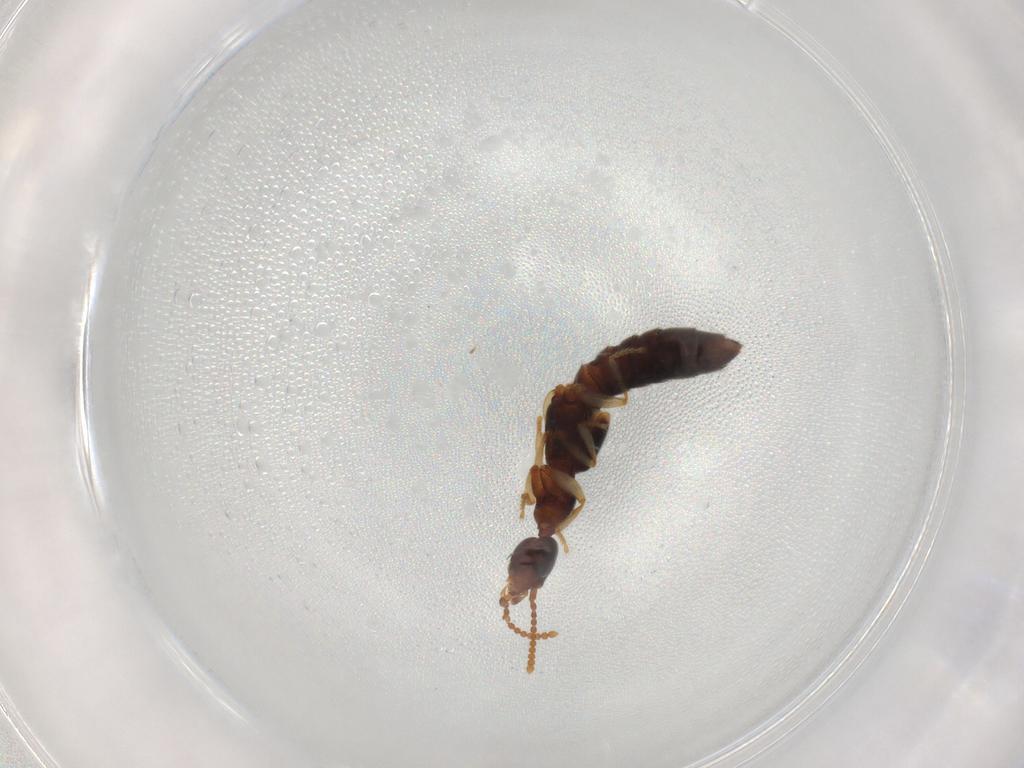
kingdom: Animalia
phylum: Arthropoda
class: Insecta
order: Coleoptera
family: Staphylinidae
